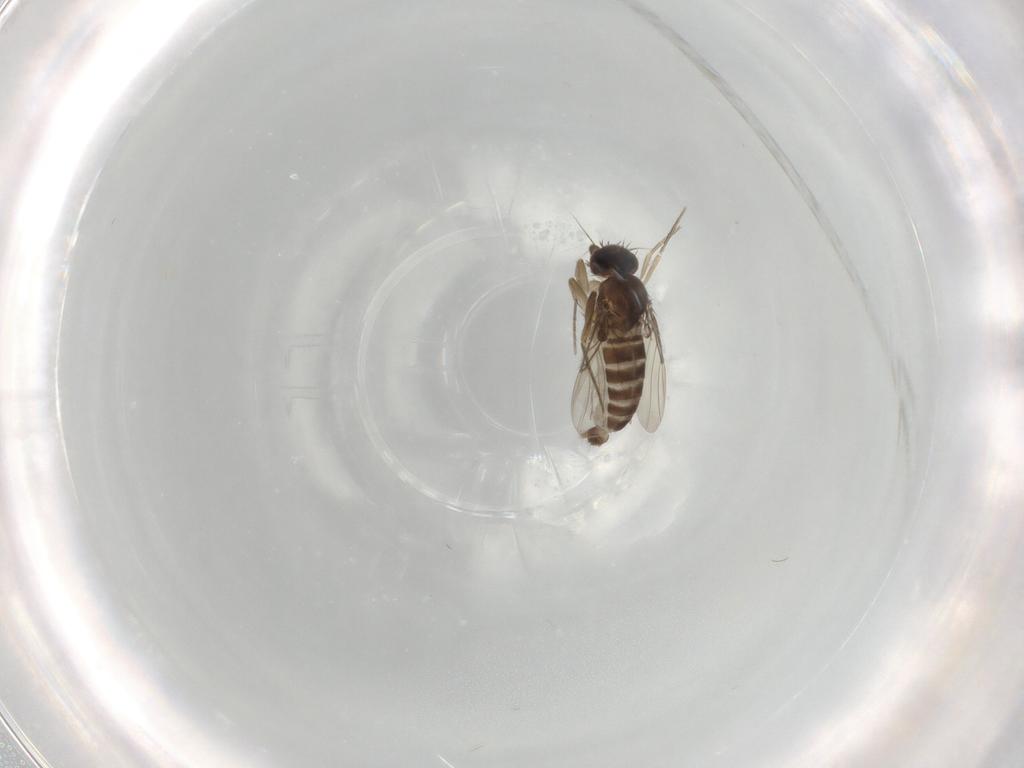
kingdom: Animalia
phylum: Arthropoda
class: Insecta
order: Diptera
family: Phoridae
